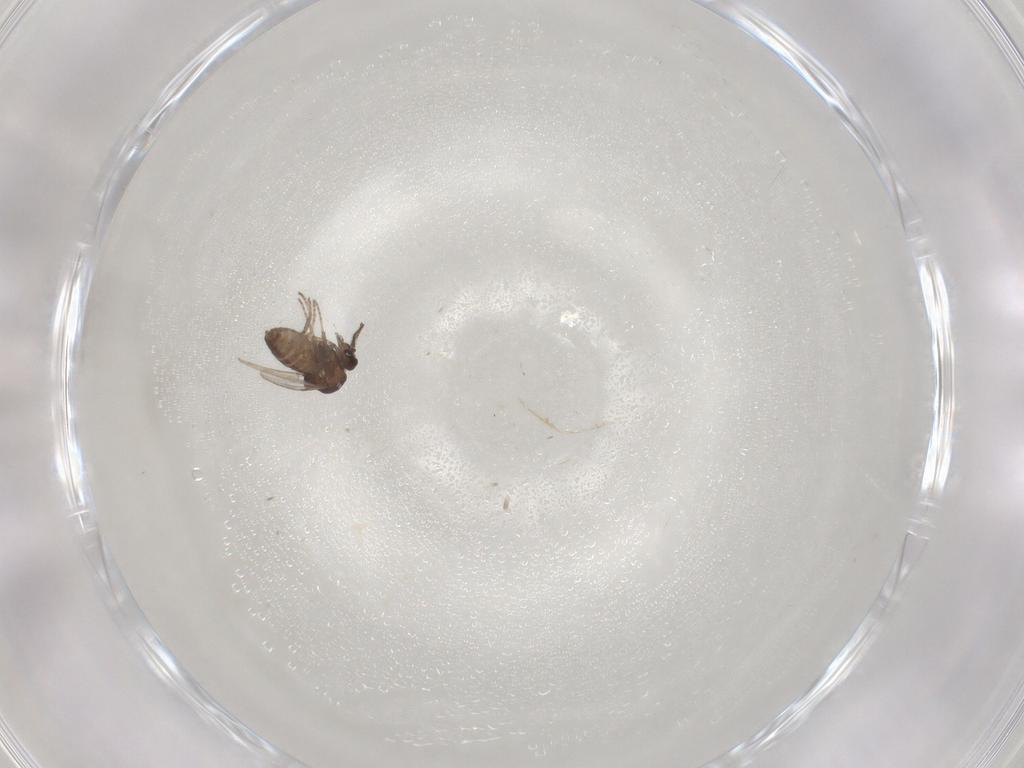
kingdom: Animalia
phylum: Arthropoda
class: Insecta
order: Diptera
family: Ceratopogonidae
